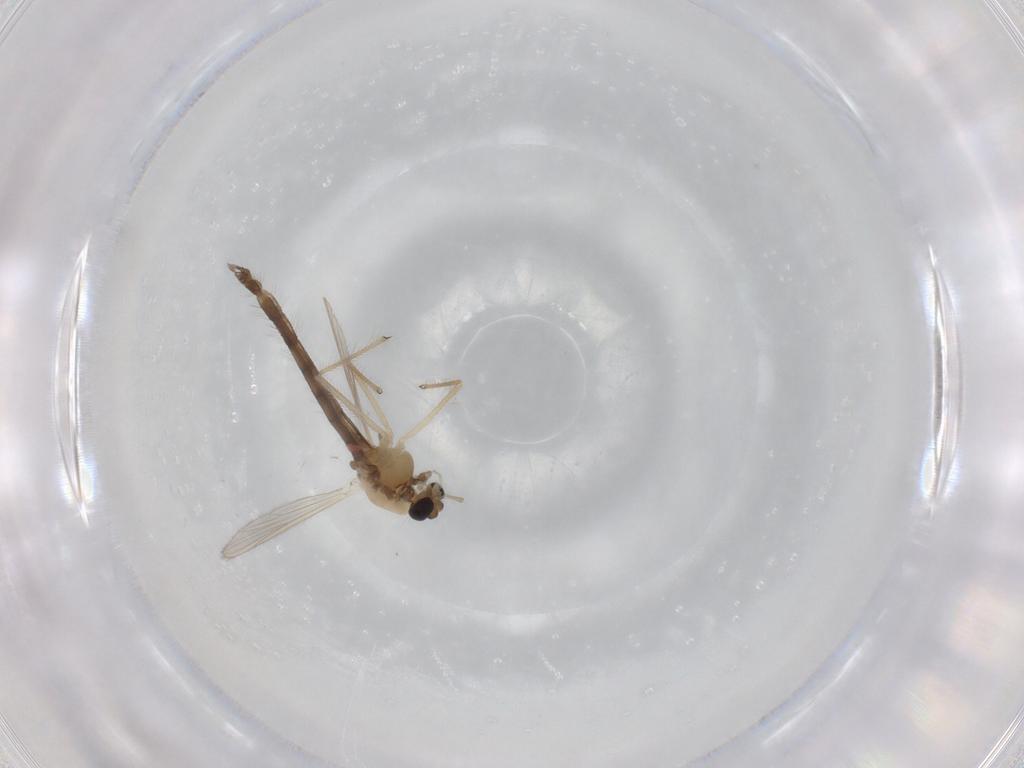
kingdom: Animalia
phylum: Arthropoda
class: Insecta
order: Diptera
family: Chironomidae
